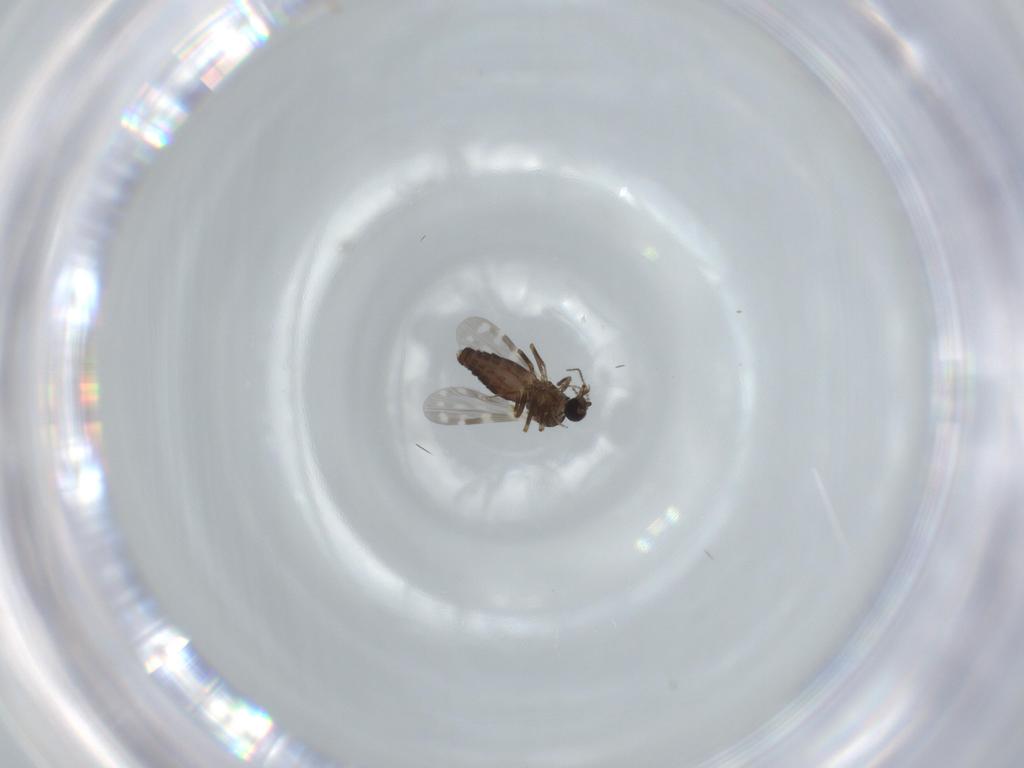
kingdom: Animalia
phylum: Arthropoda
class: Insecta
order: Diptera
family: Ceratopogonidae
